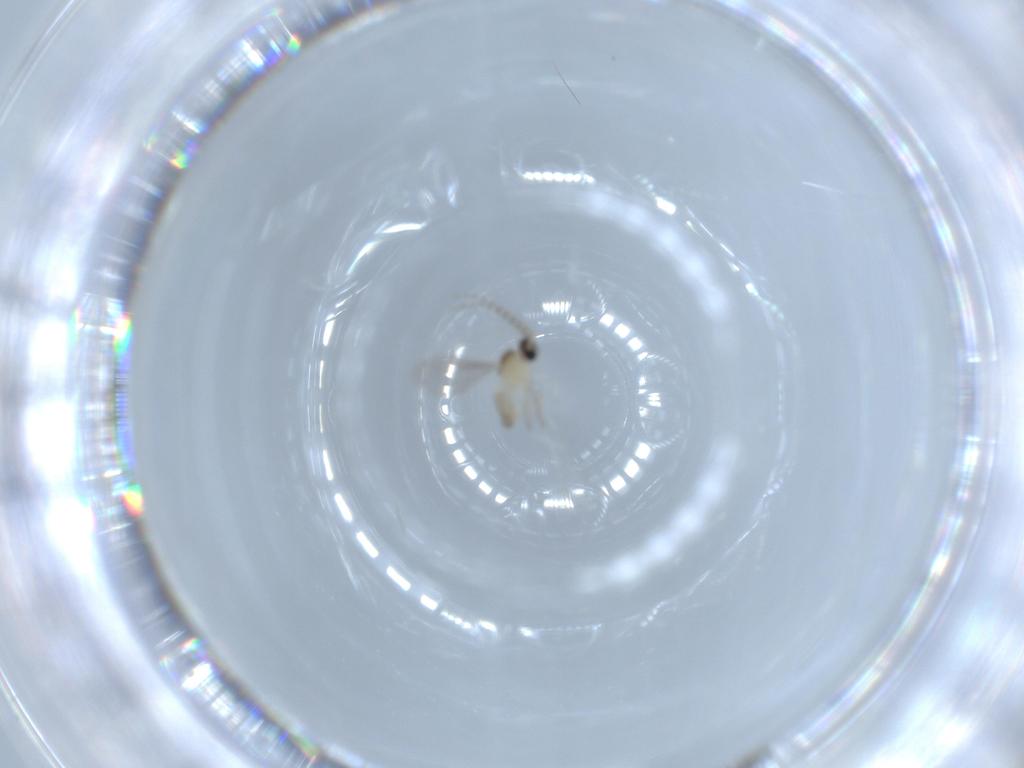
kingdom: Animalia
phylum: Arthropoda
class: Insecta
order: Diptera
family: Cecidomyiidae
